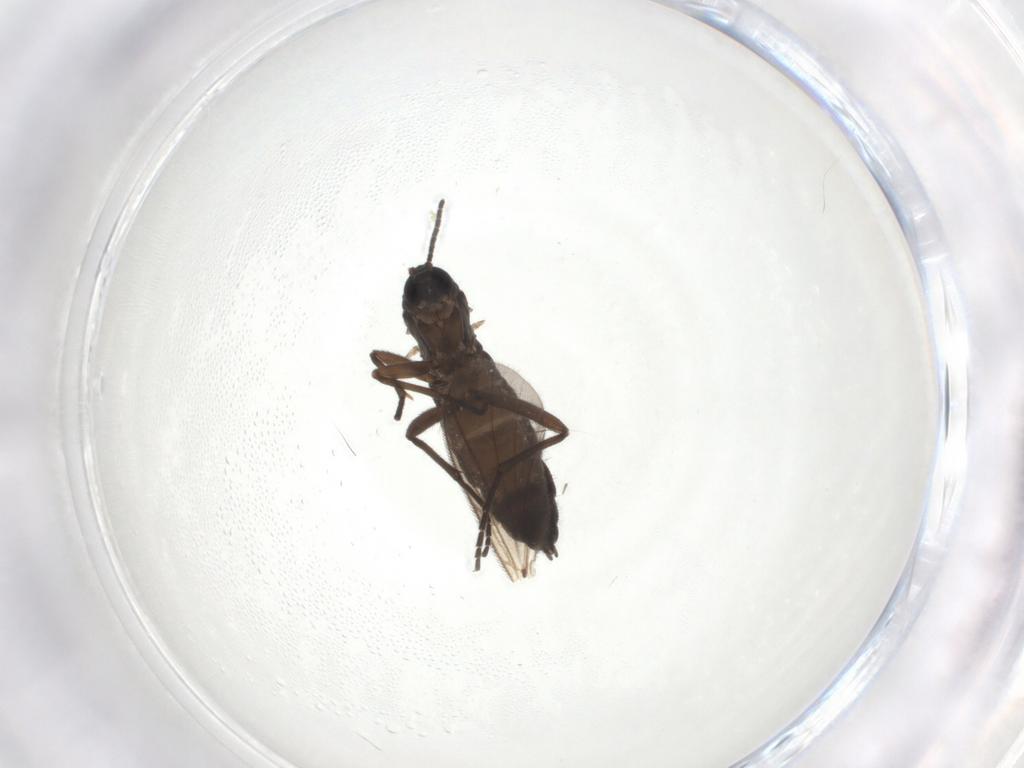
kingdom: Animalia
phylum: Arthropoda
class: Insecta
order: Diptera
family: Sciaridae
